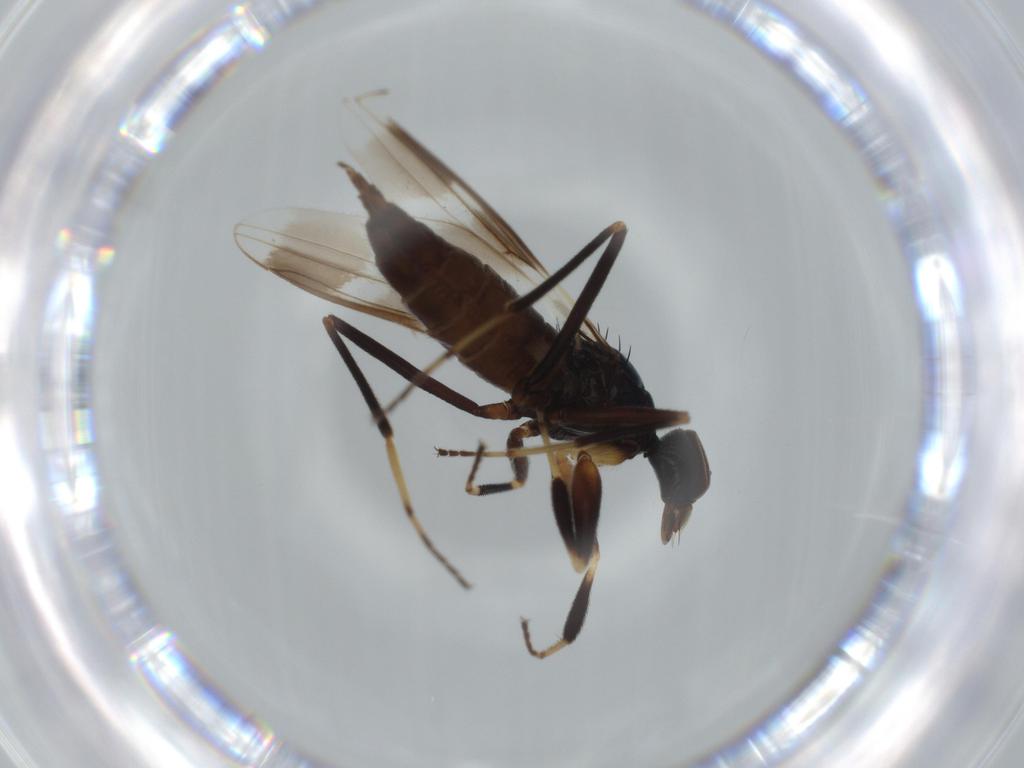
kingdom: Animalia
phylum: Arthropoda
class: Insecta
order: Diptera
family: Hybotidae
